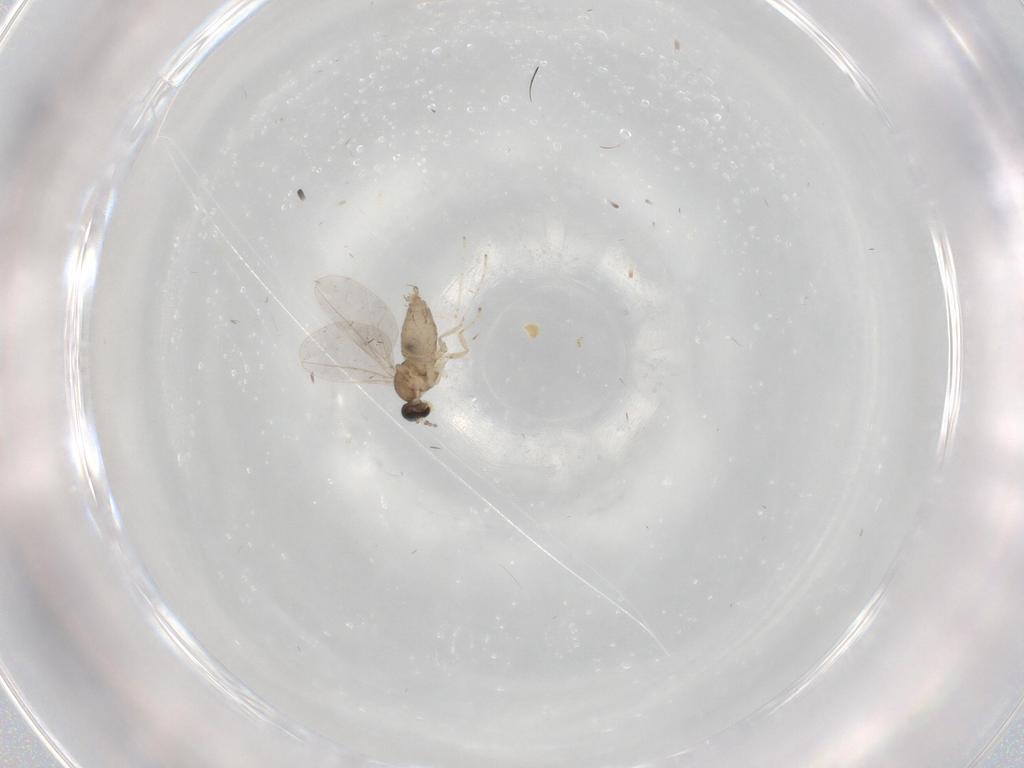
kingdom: Animalia
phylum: Arthropoda
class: Insecta
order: Diptera
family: Cecidomyiidae
